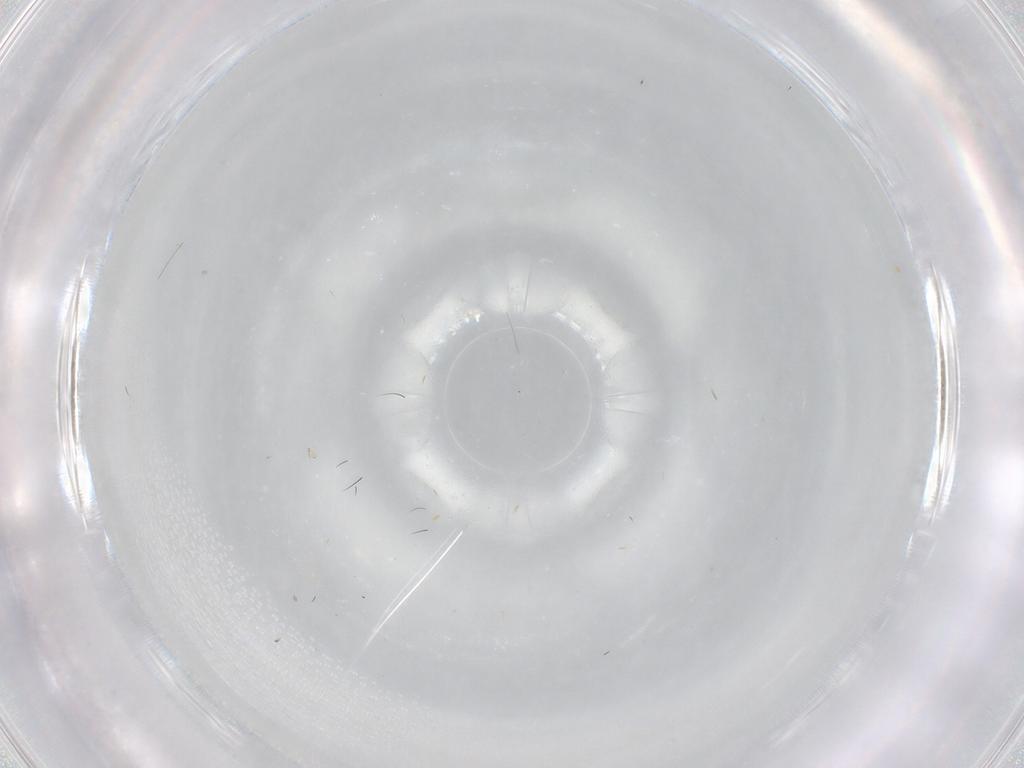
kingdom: Animalia
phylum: Arthropoda
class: Insecta
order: Diptera
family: Tabanidae
